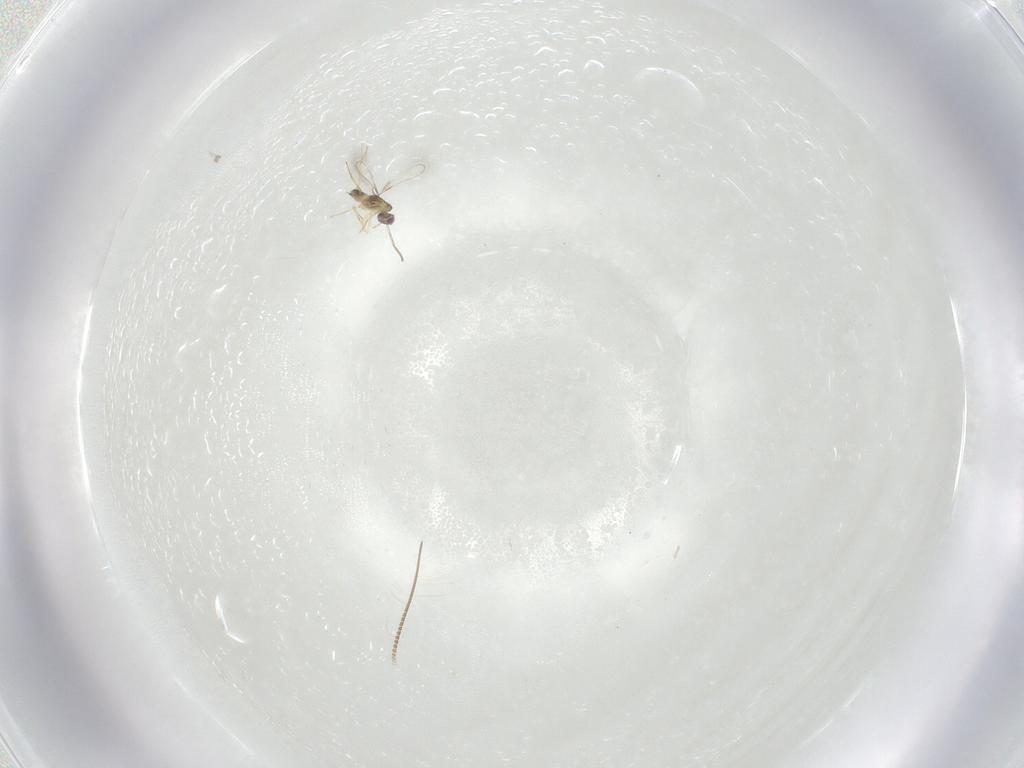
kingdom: Animalia
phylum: Arthropoda
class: Insecta
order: Hymenoptera
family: Mymaridae
